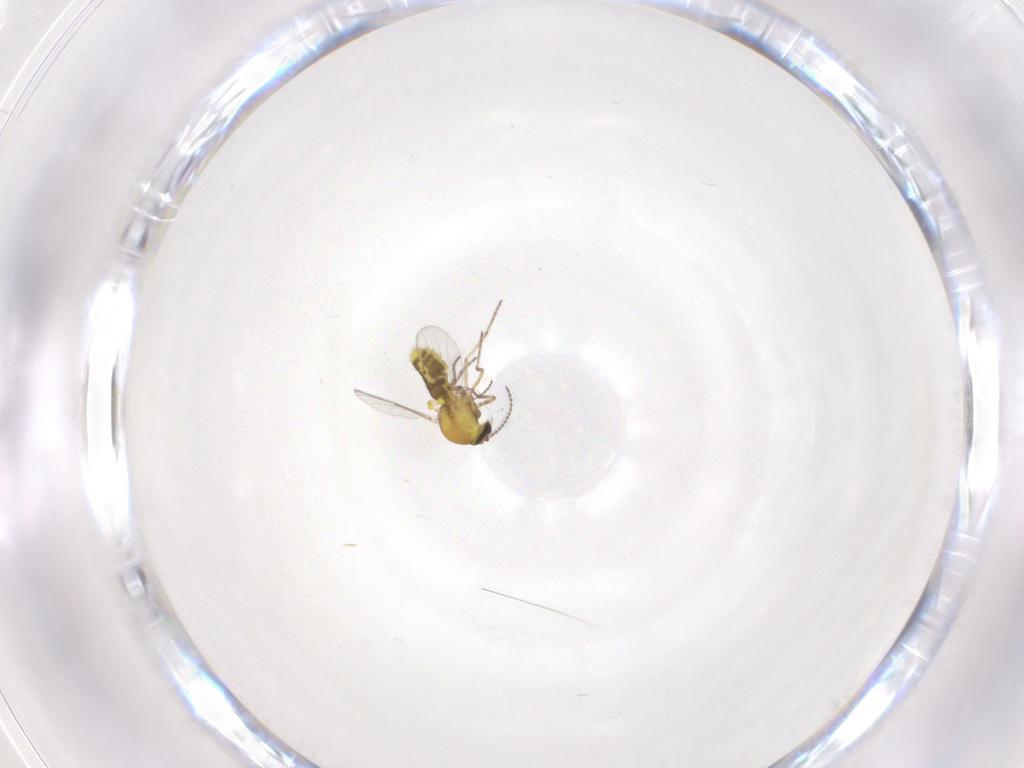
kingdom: Animalia
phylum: Arthropoda
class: Insecta
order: Diptera
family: Ceratopogonidae
